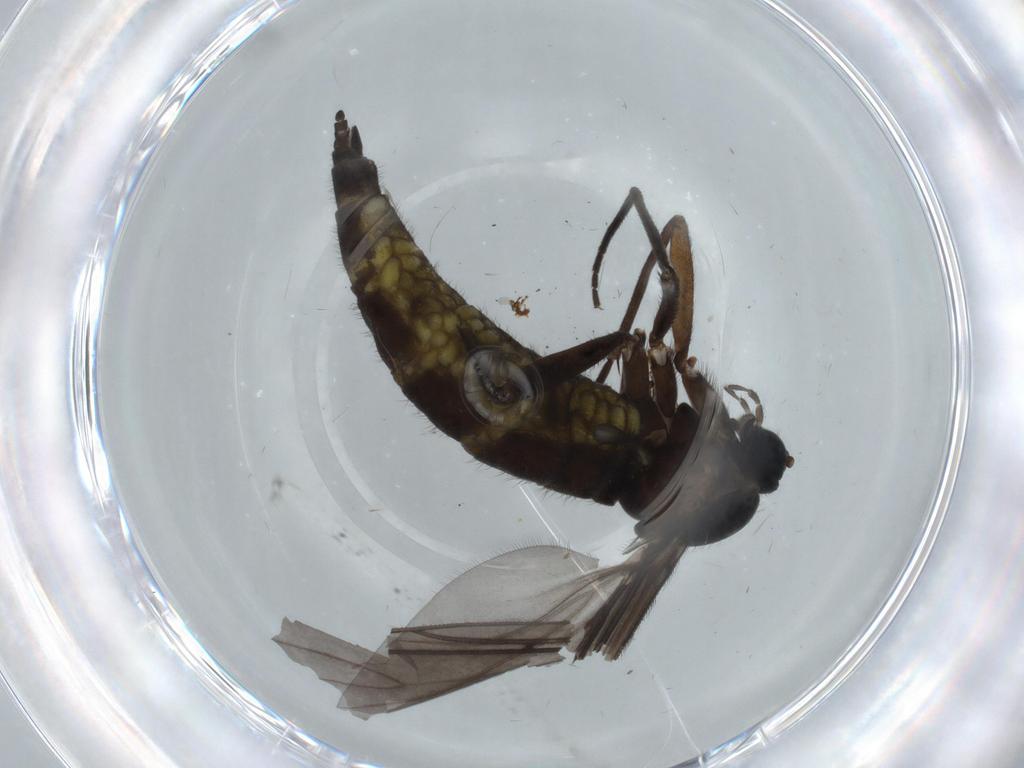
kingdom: Animalia
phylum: Arthropoda
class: Insecta
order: Diptera
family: Sciaridae
